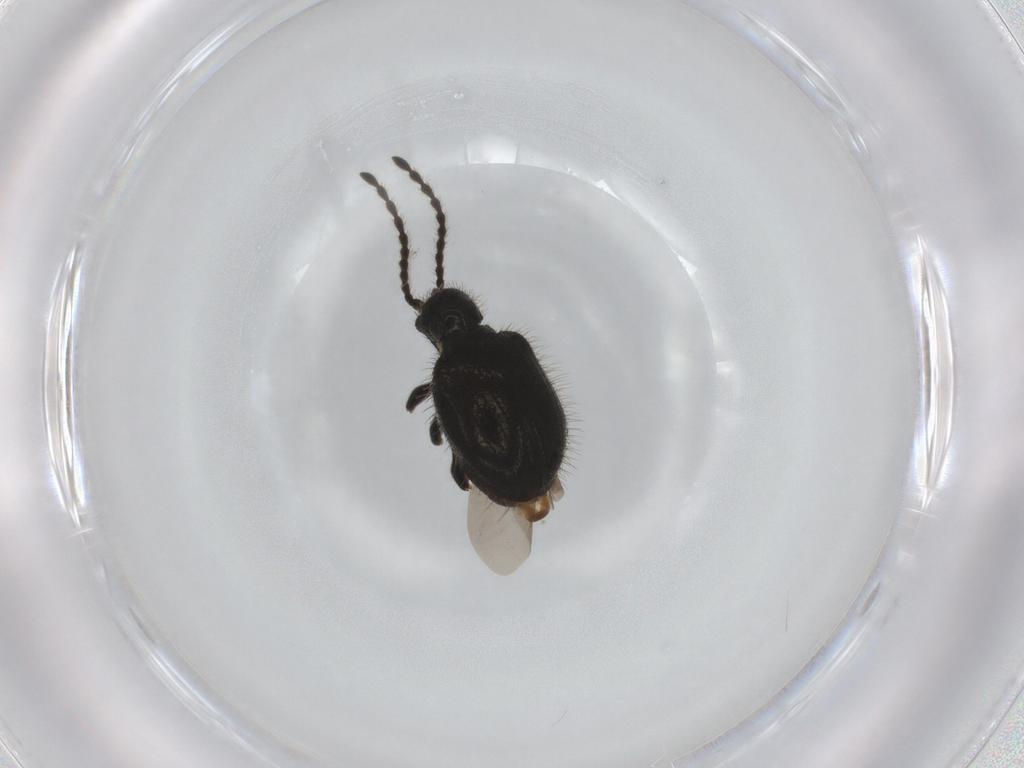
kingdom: Animalia
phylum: Arthropoda
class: Insecta
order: Coleoptera
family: Ptinidae
